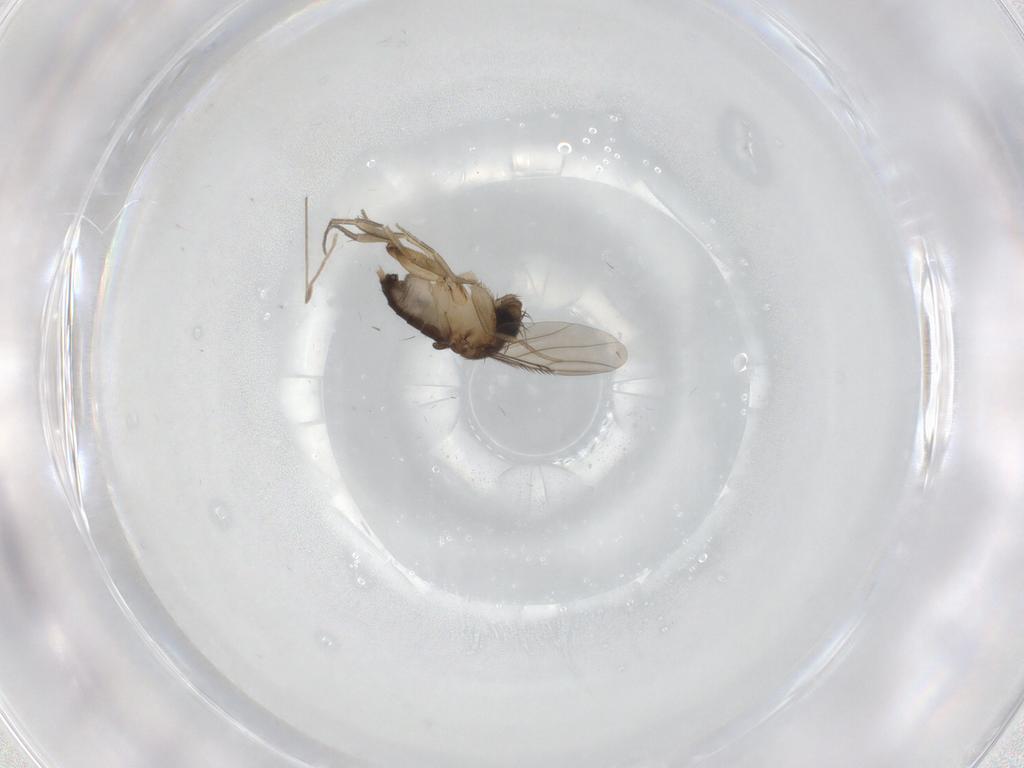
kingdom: Animalia
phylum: Arthropoda
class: Insecta
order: Diptera
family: Phoridae
